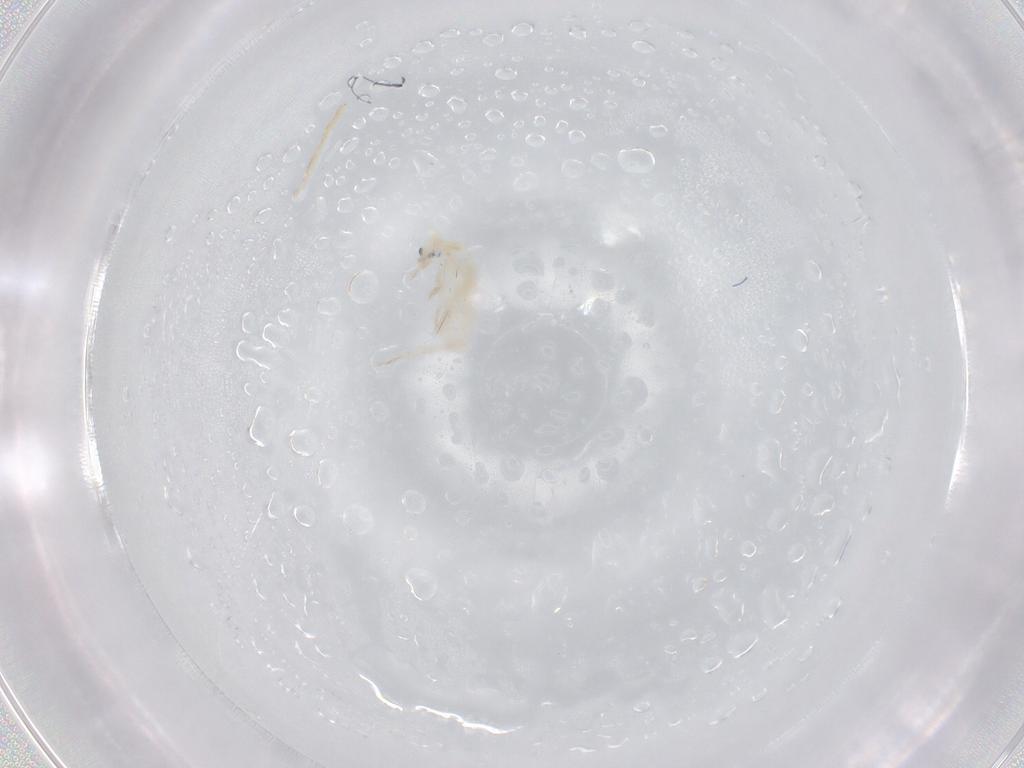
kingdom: Animalia
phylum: Arthropoda
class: Collembola
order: Entomobryomorpha
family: Entomobryidae
